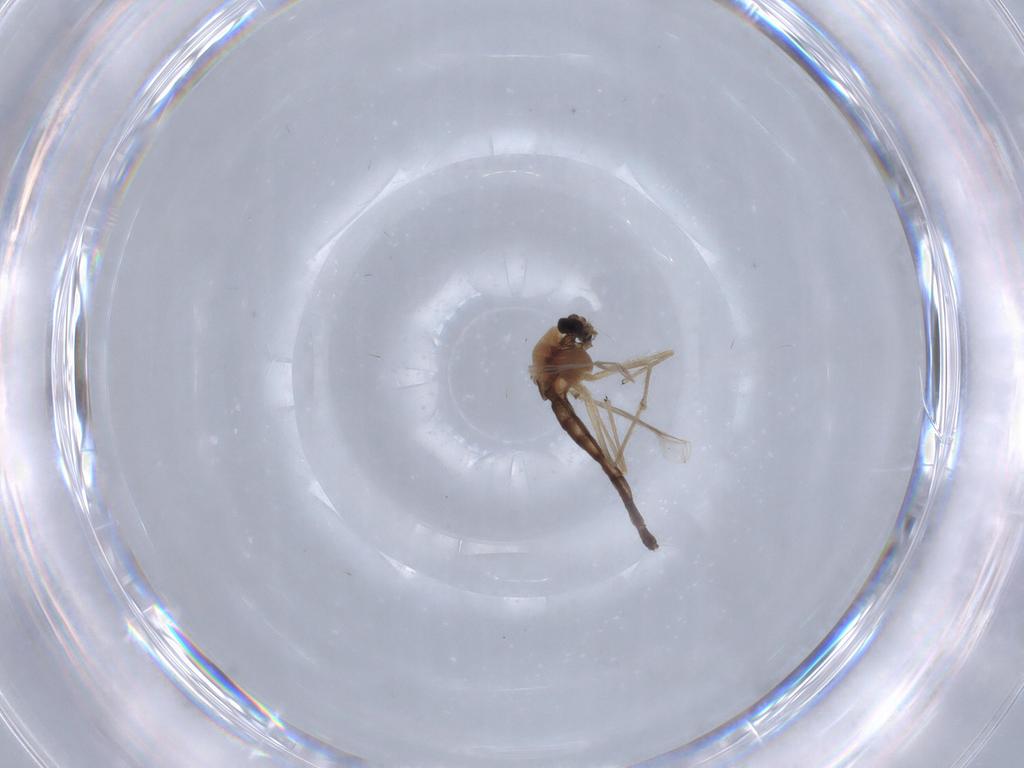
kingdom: Animalia
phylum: Arthropoda
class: Insecta
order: Diptera
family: Chironomidae
